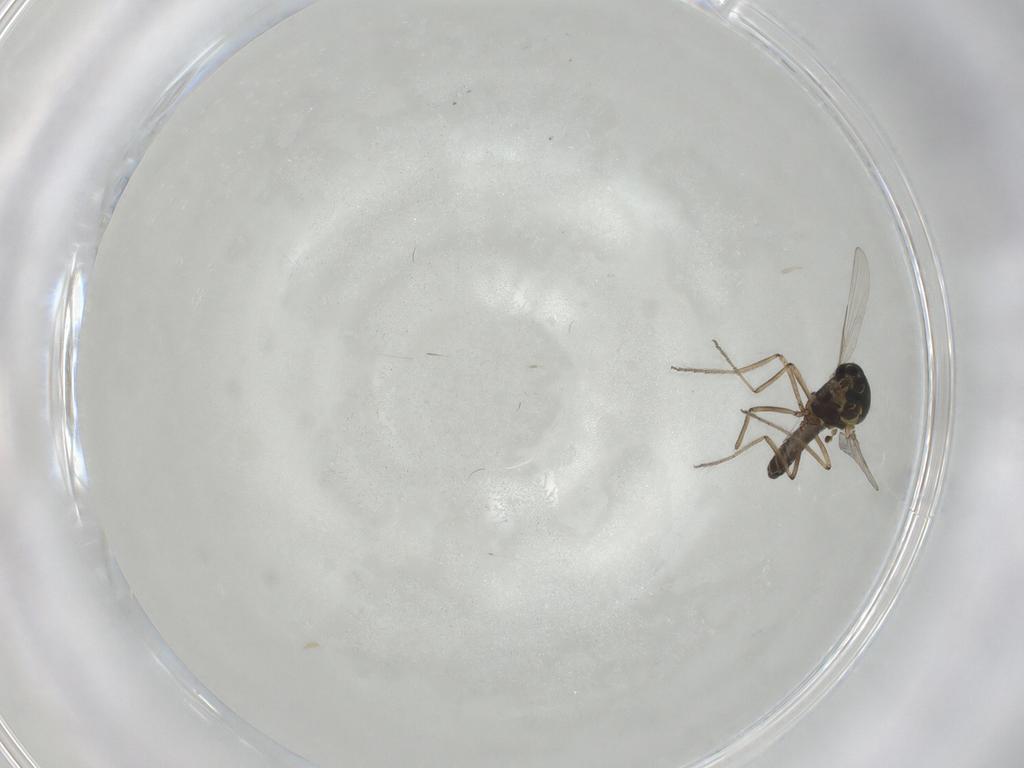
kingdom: Animalia
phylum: Arthropoda
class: Insecta
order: Diptera
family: Ceratopogonidae
